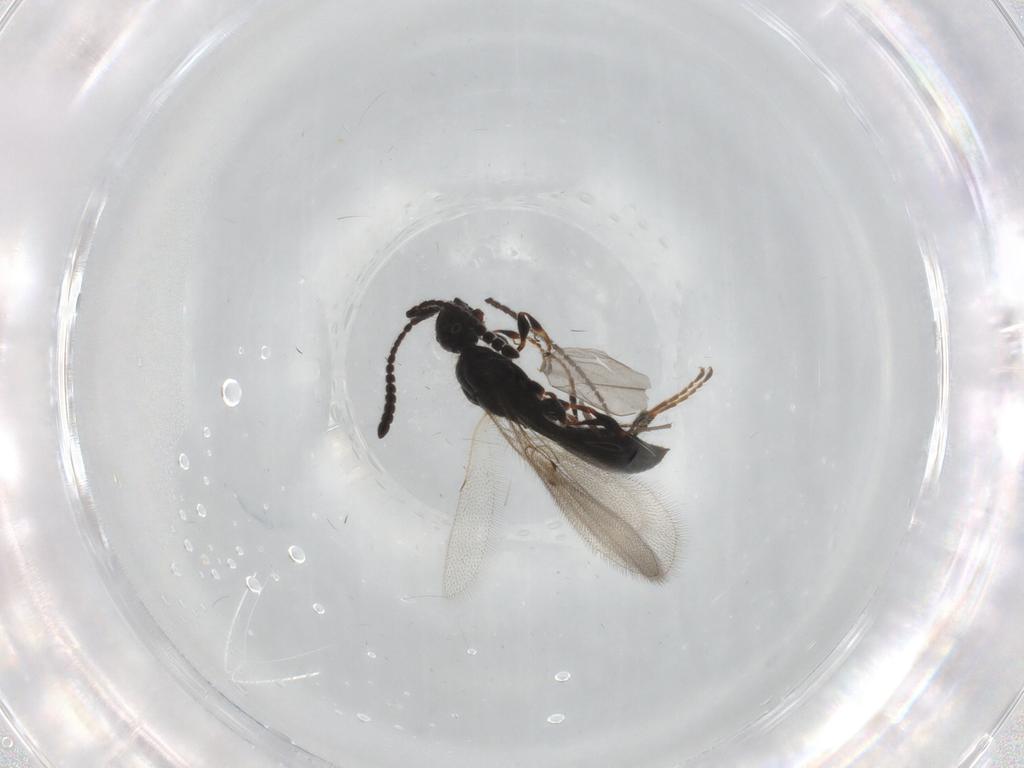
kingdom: Animalia
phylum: Arthropoda
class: Insecta
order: Hymenoptera
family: Diapriidae
